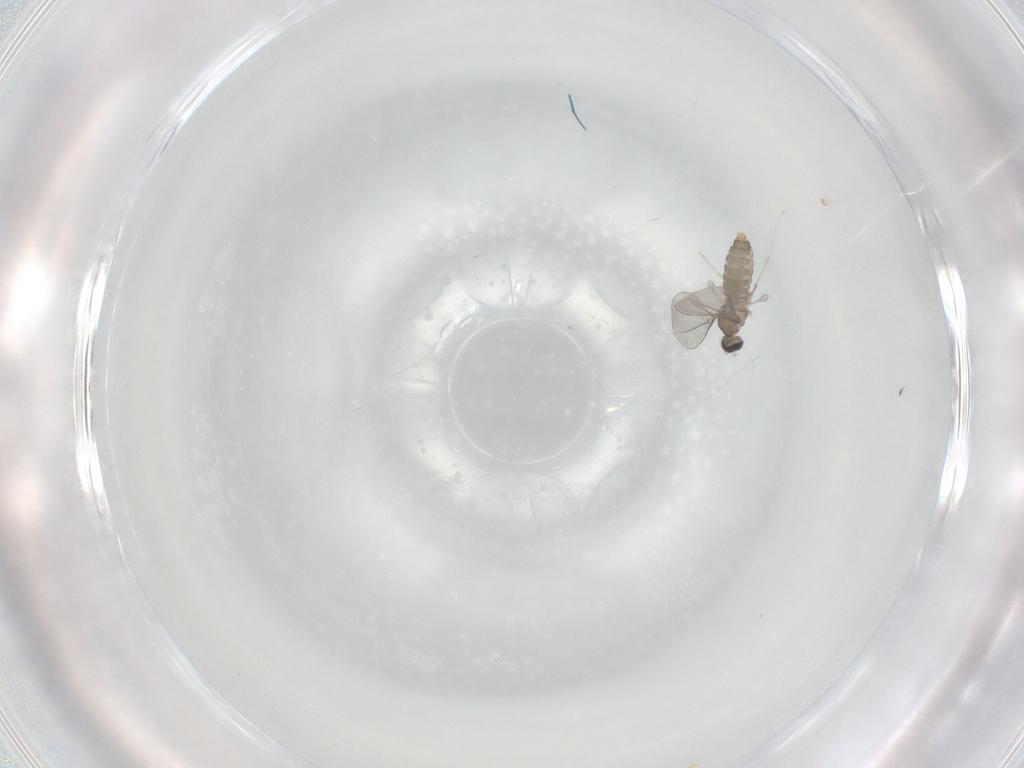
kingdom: Animalia
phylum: Arthropoda
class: Insecta
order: Diptera
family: Cecidomyiidae
